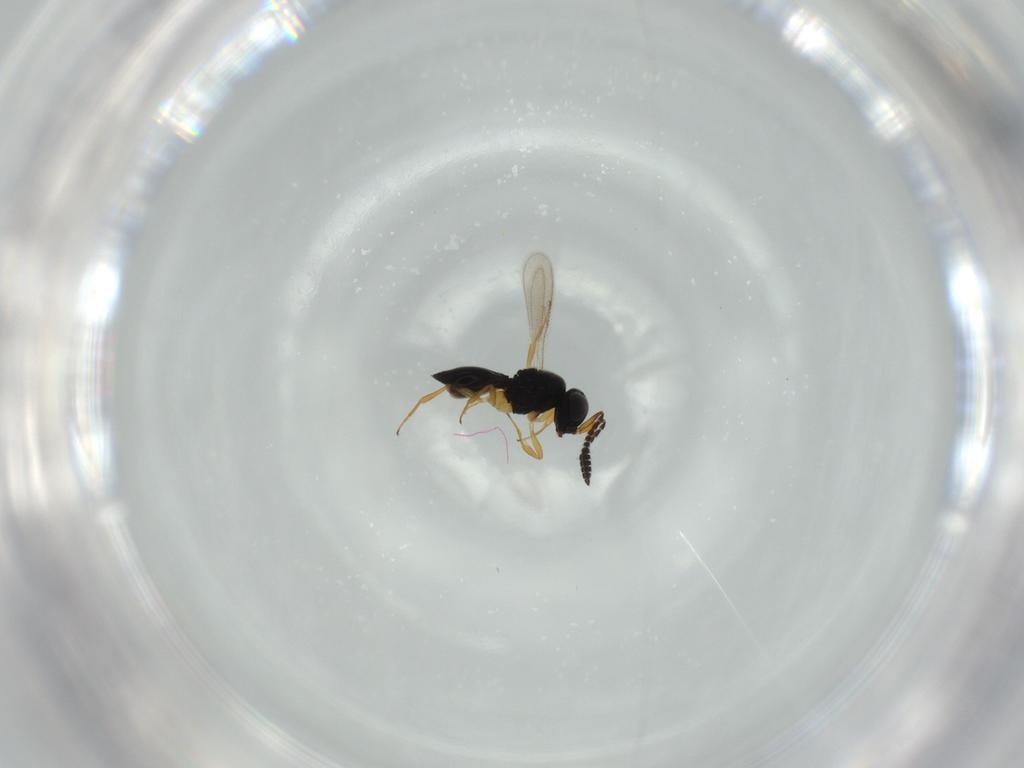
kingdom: Animalia
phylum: Arthropoda
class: Insecta
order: Hymenoptera
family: Scelionidae
